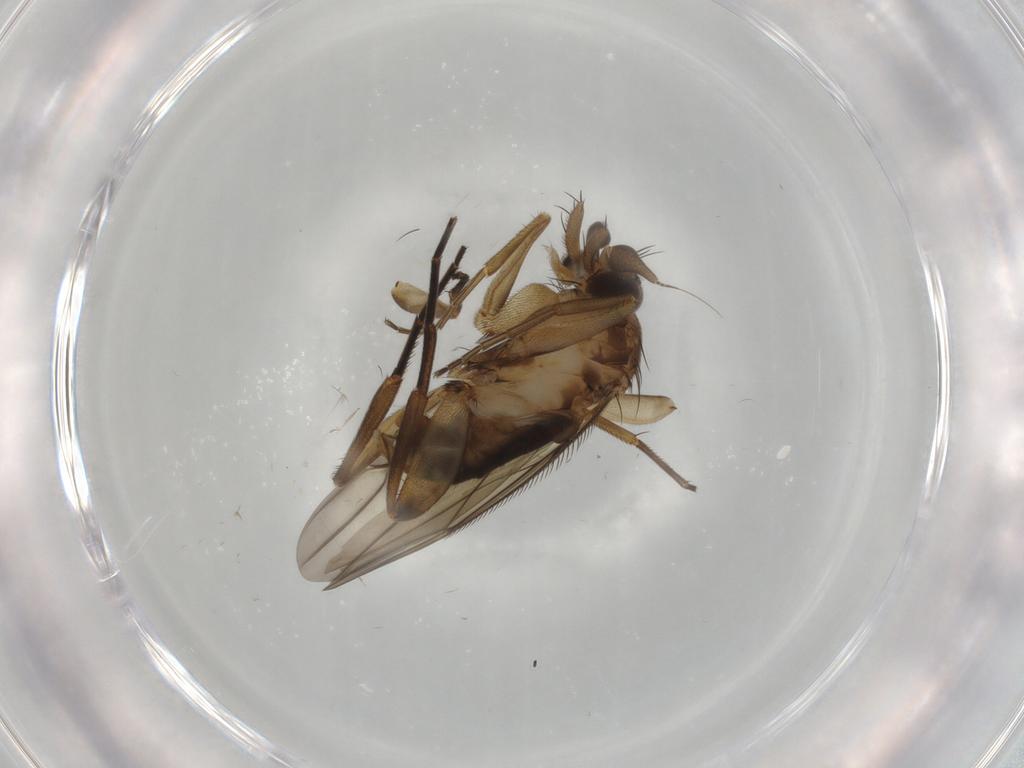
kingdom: Animalia
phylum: Arthropoda
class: Insecta
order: Diptera
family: Phoridae
